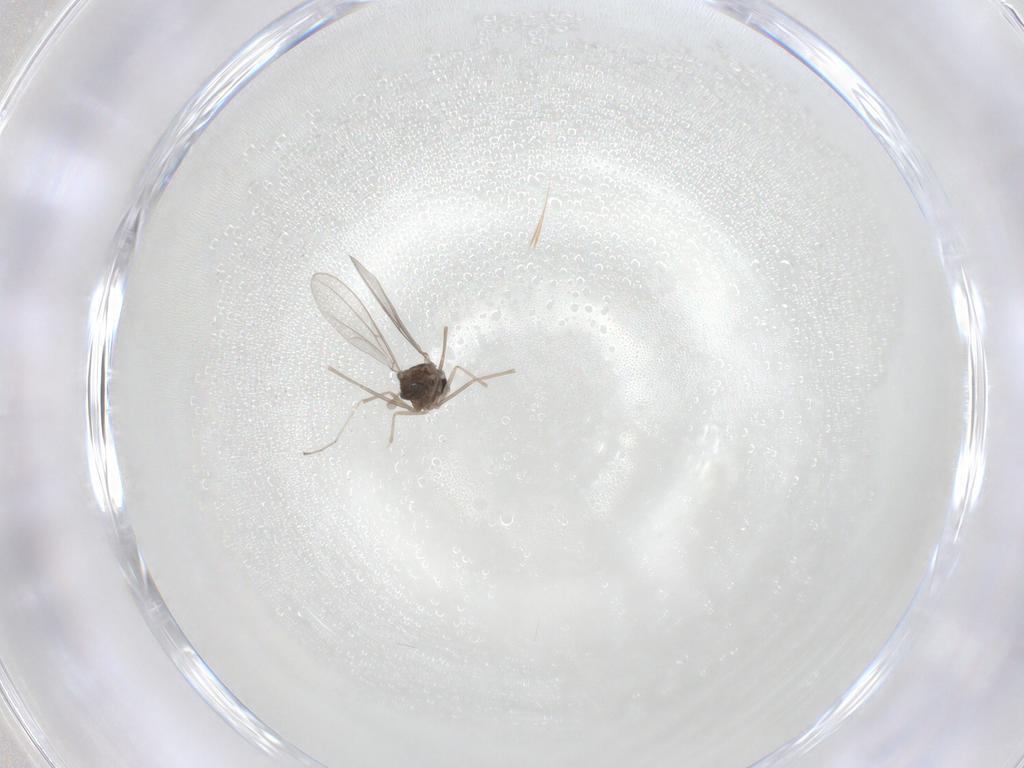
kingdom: Animalia
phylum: Arthropoda
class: Insecta
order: Diptera
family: Cecidomyiidae
